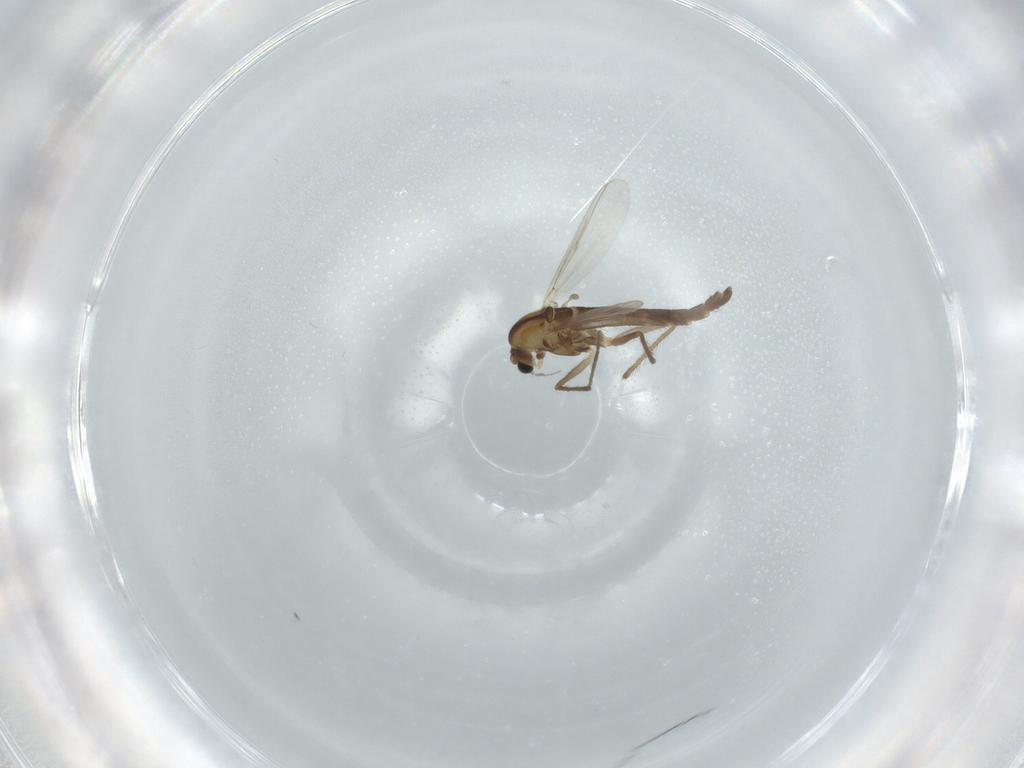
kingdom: Animalia
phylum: Arthropoda
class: Insecta
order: Diptera
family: Chironomidae
